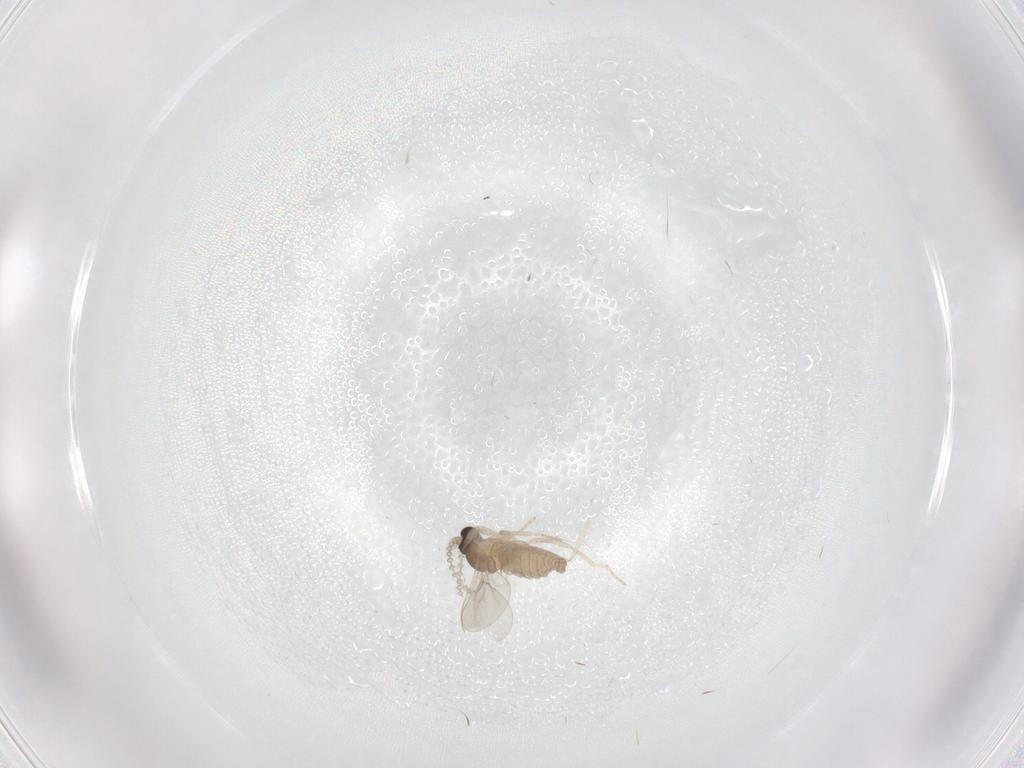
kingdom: Animalia
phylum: Arthropoda
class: Insecta
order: Diptera
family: Cecidomyiidae
